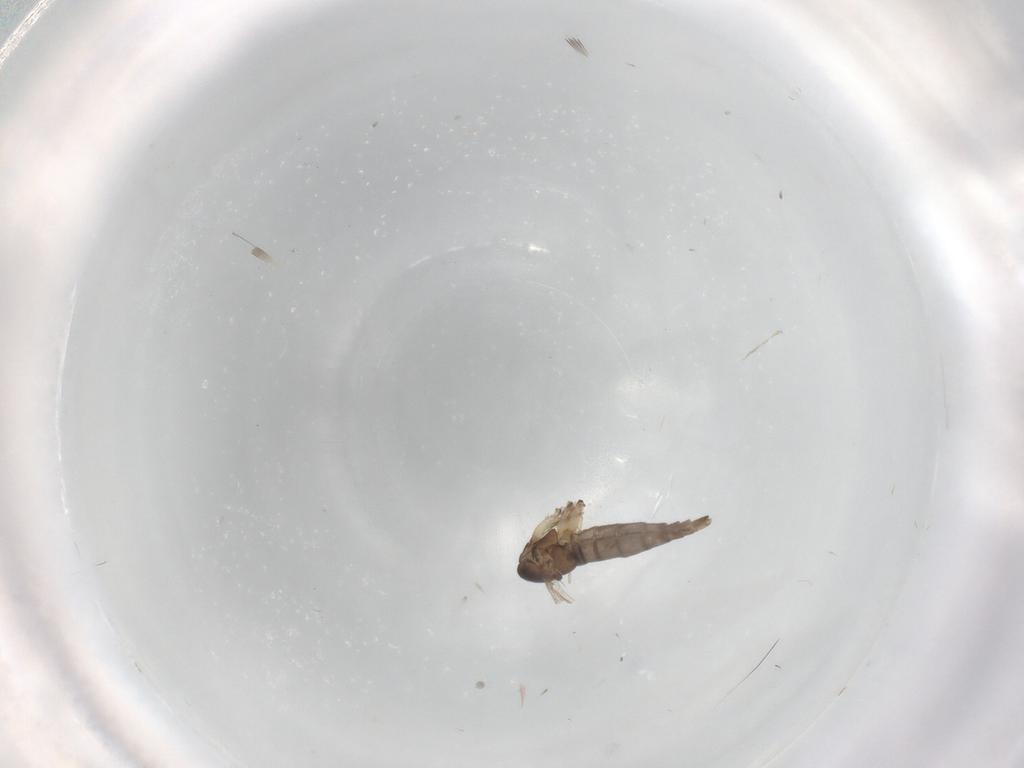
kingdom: Animalia
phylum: Arthropoda
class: Insecta
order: Diptera
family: Sciaridae
